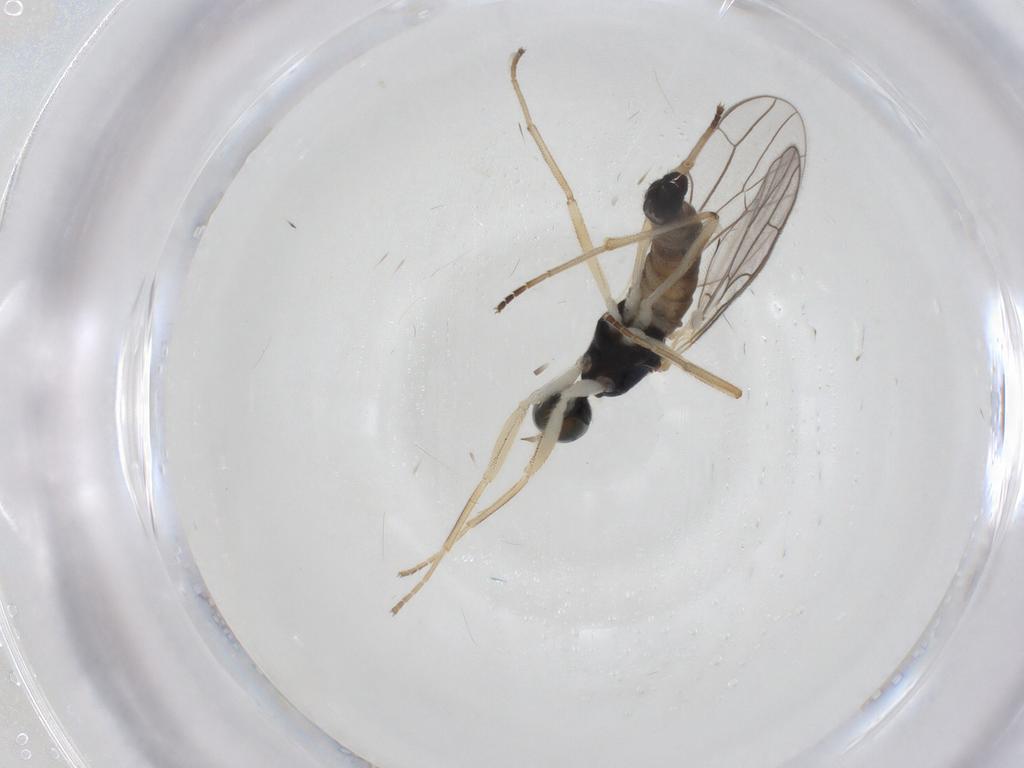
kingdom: Animalia
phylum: Arthropoda
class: Insecta
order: Diptera
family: Empididae
